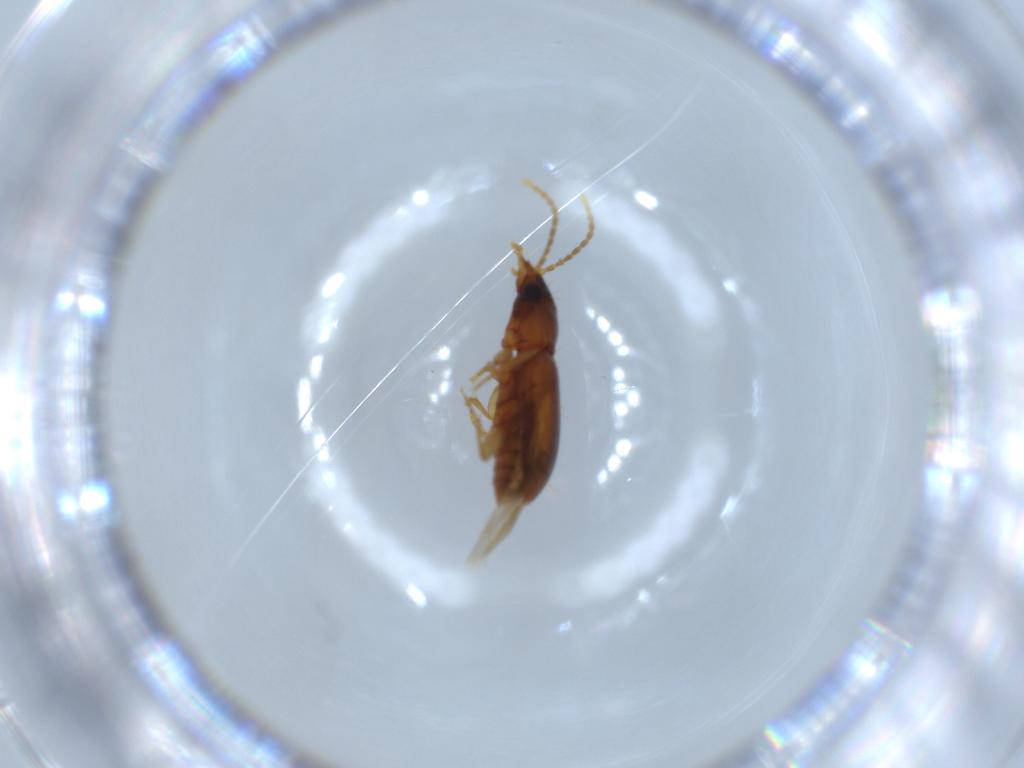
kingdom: Animalia
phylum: Arthropoda
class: Insecta
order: Coleoptera
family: Carabidae
